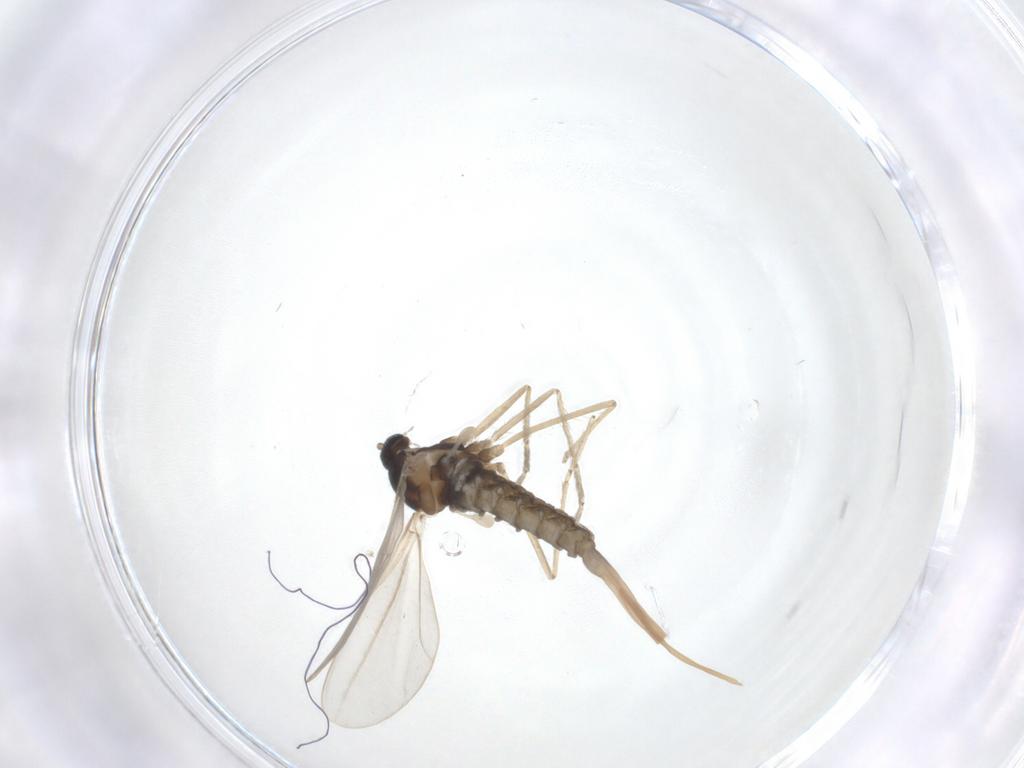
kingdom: Animalia
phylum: Arthropoda
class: Insecta
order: Diptera
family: Cecidomyiidae
